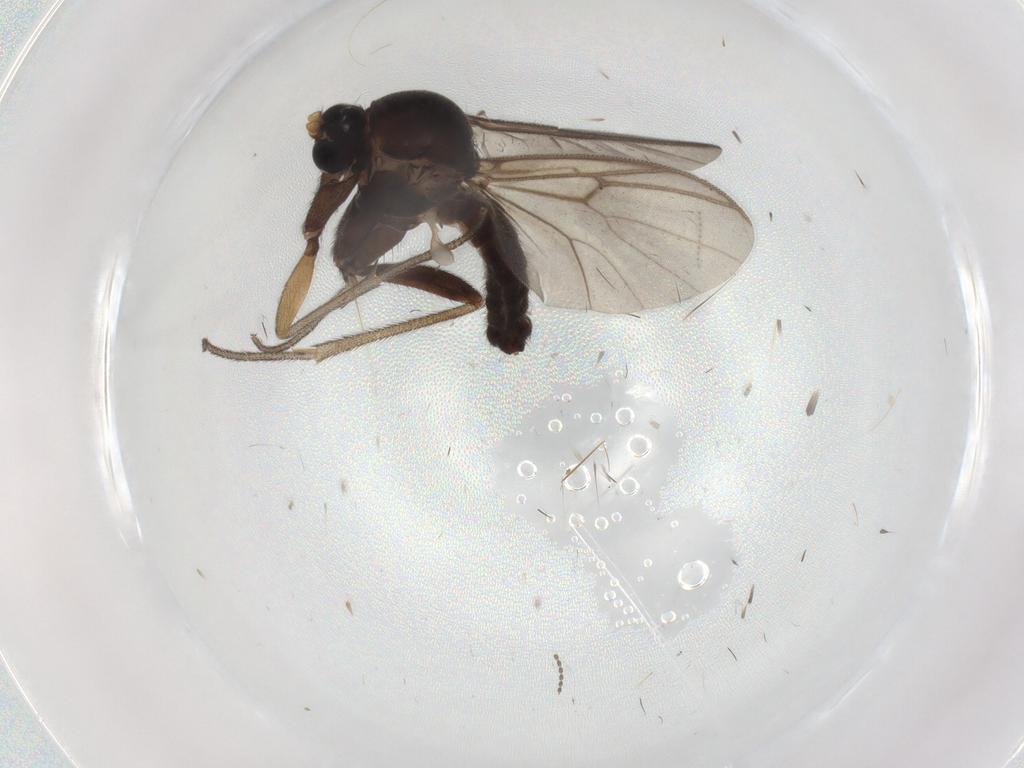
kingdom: Animalia
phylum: Arthropoda
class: Insecta
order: Diptera
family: Mycetophilidae
